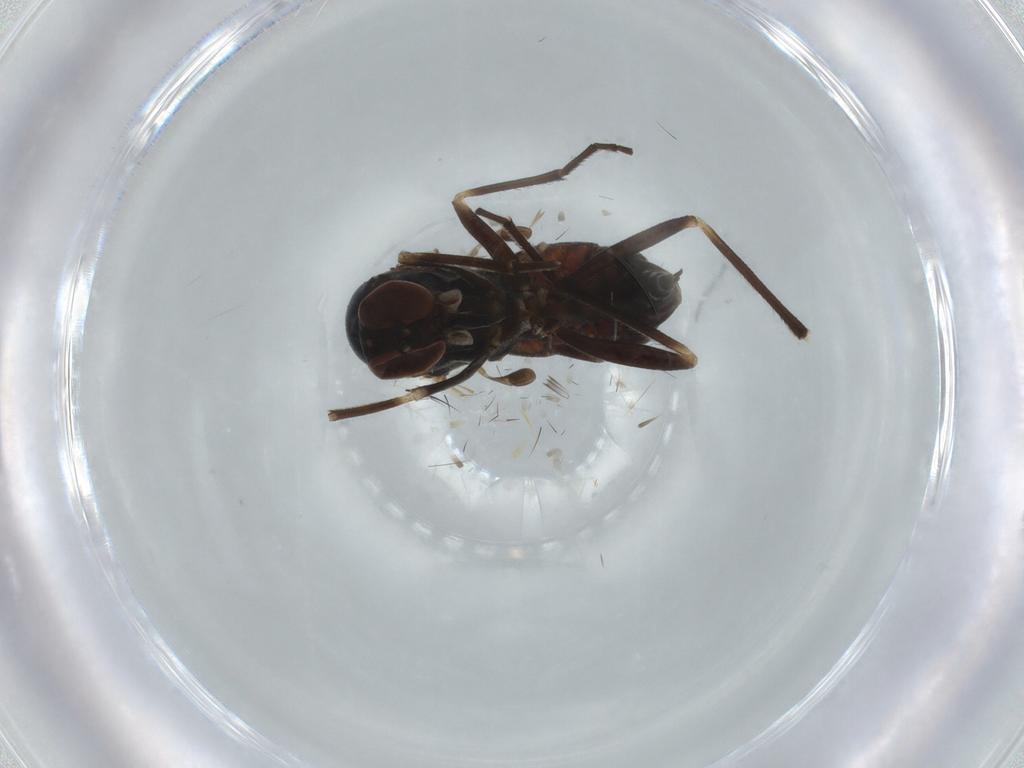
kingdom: Animalia
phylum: Arthropoda
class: Insecta
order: Diptera
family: Empididae
